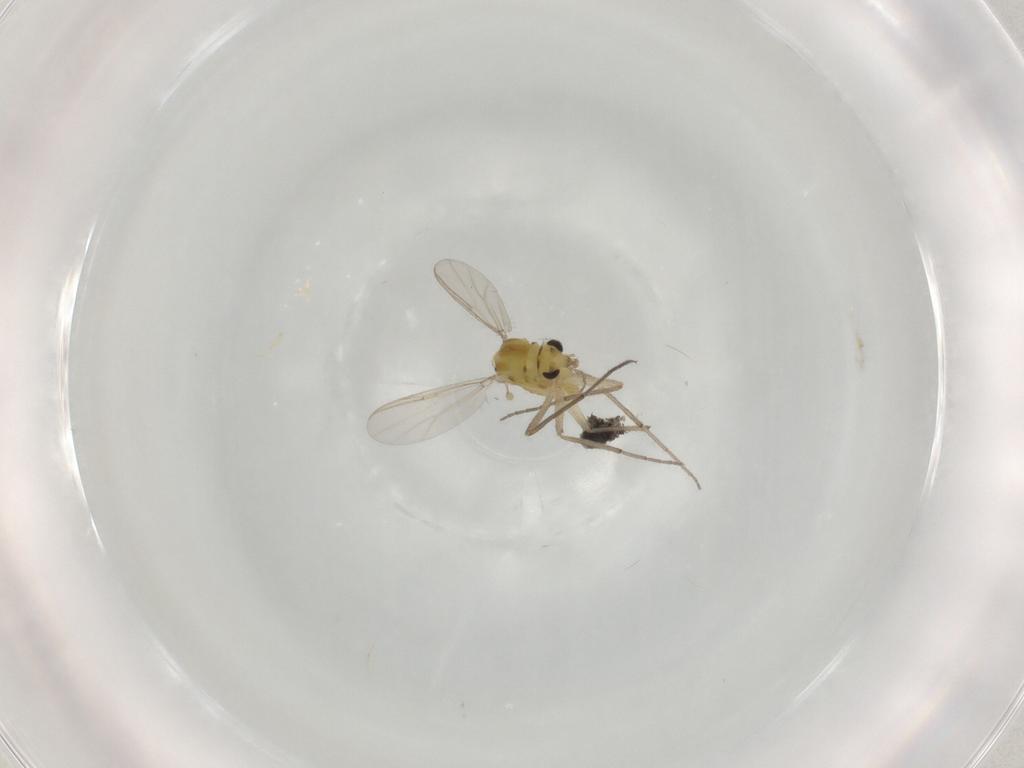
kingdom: Animalia
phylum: Arthropoda
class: Insecta
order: Diptera
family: Chironomidae
